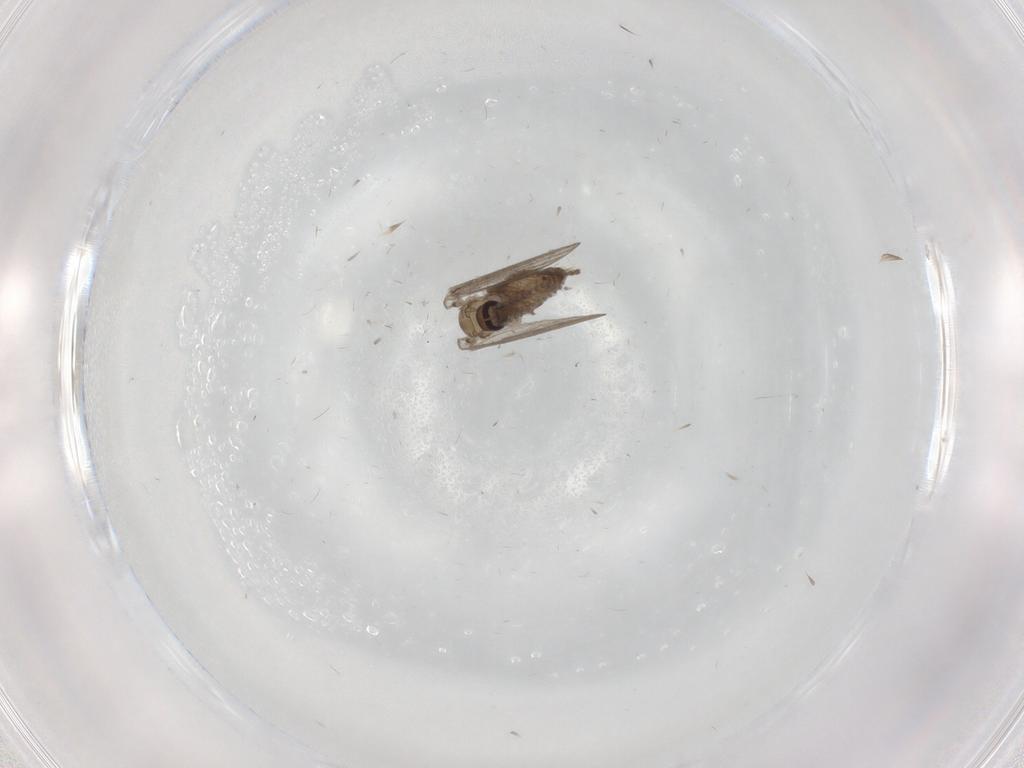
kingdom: Animalia
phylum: Arthropoda
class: Insecta
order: Diptera
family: Psychodidae
